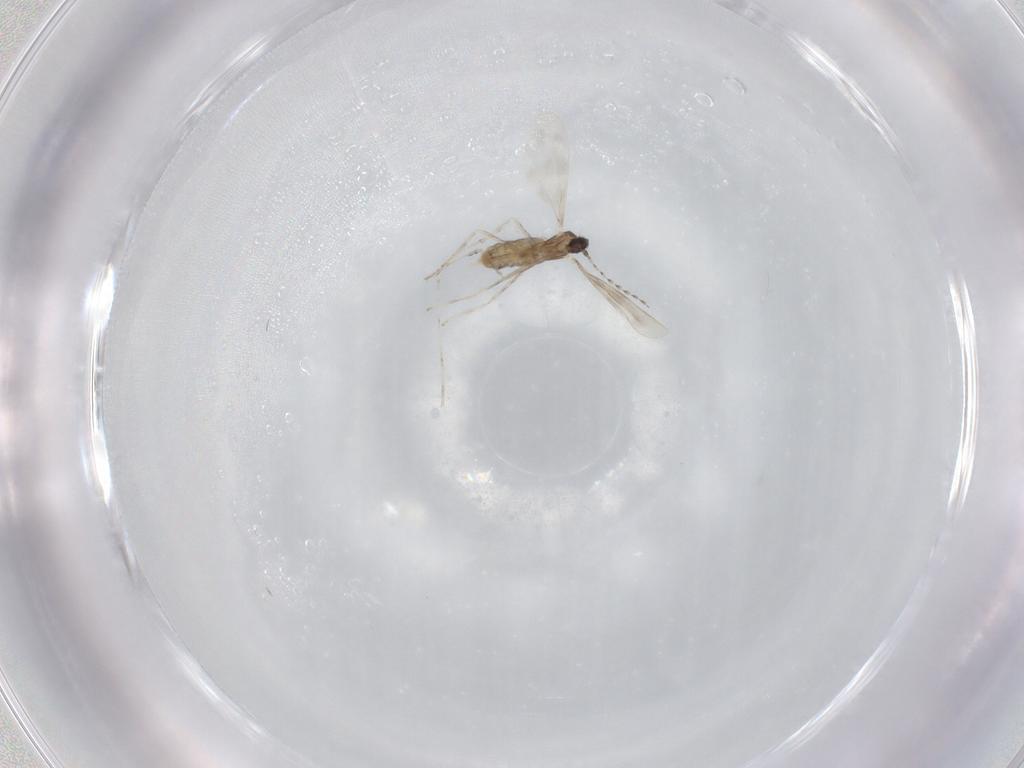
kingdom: Animalia
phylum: Arthropoda
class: Insecta
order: Diptera
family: Cecidomyiidae
